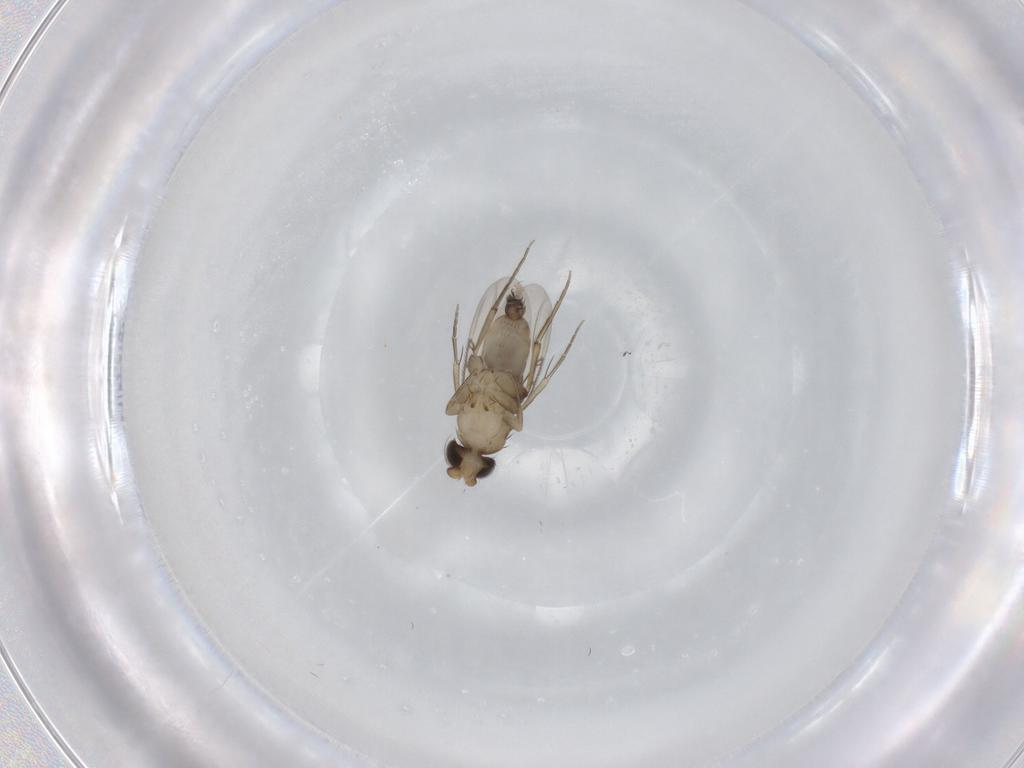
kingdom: Animalia
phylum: Arthropoda
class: Insecta
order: Diptera
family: Phoridae
